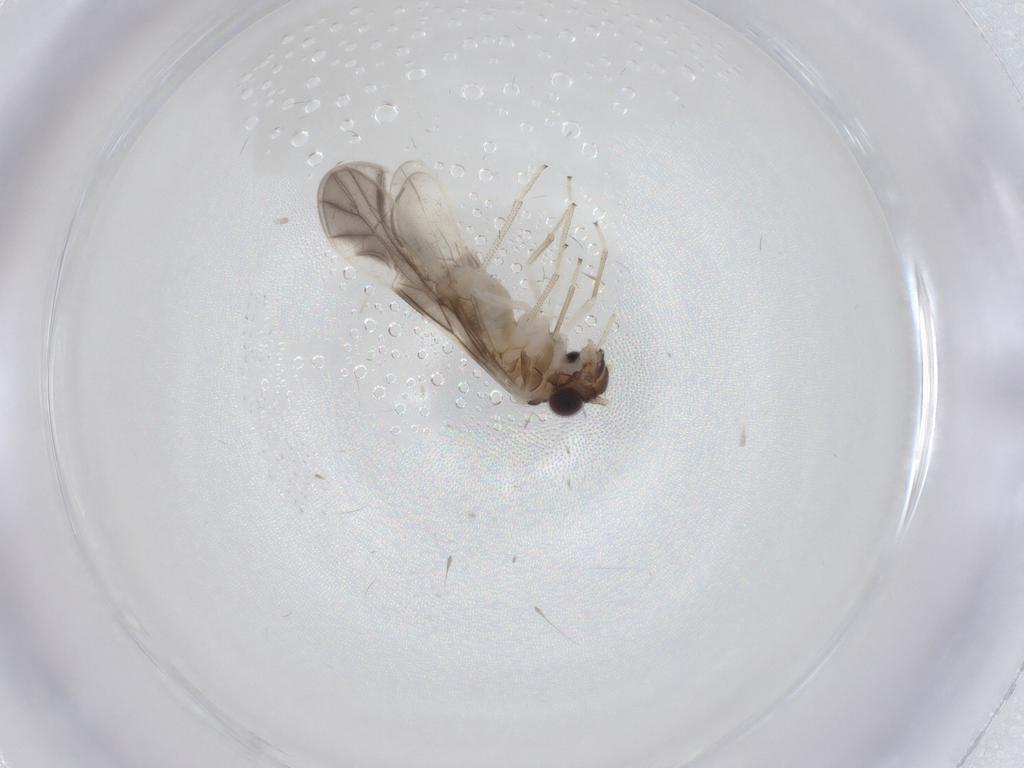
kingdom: Animalia
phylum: Arthropoda
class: Insecta
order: Psocodea
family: Caeciliusidae
